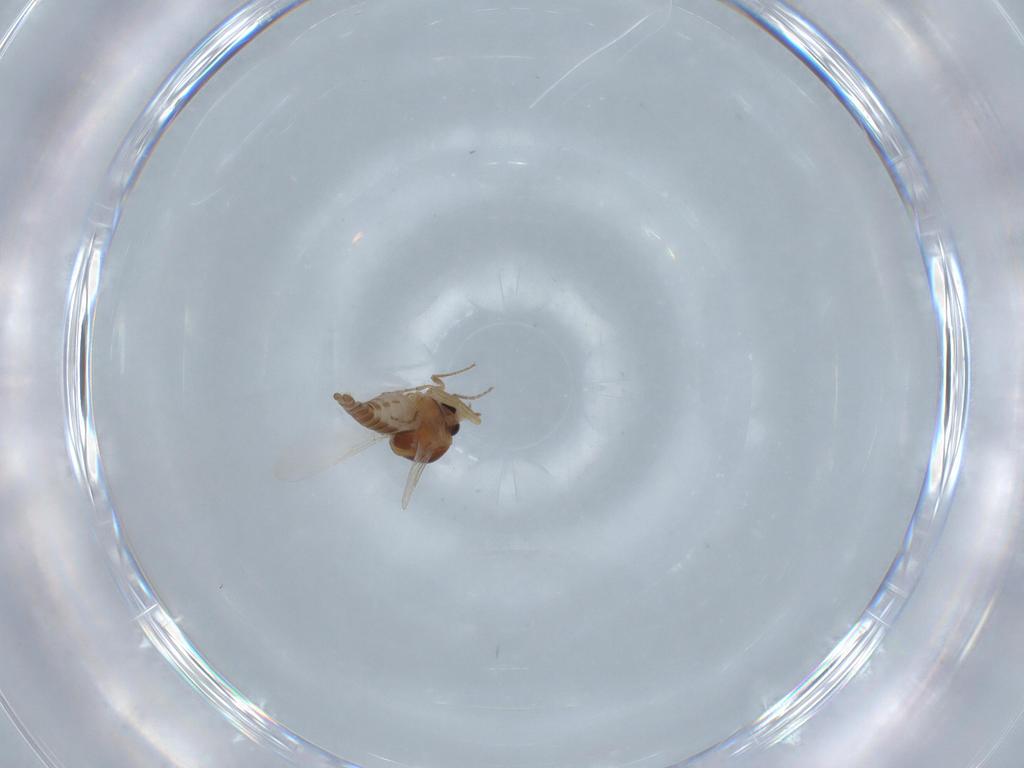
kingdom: Animalia
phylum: Arthropoda
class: Insecta
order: Diptera
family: Ceratopogonidae
